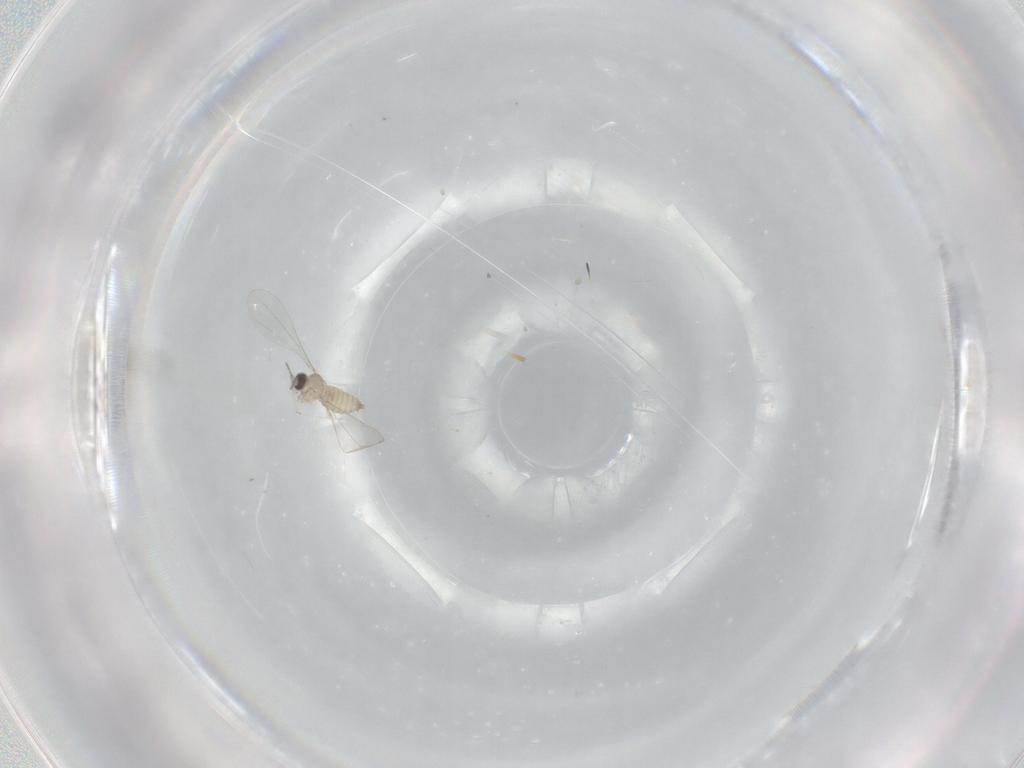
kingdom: Animalia
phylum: Arthropoda
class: Insecta
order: Diptera
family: Cecidomyiidae
